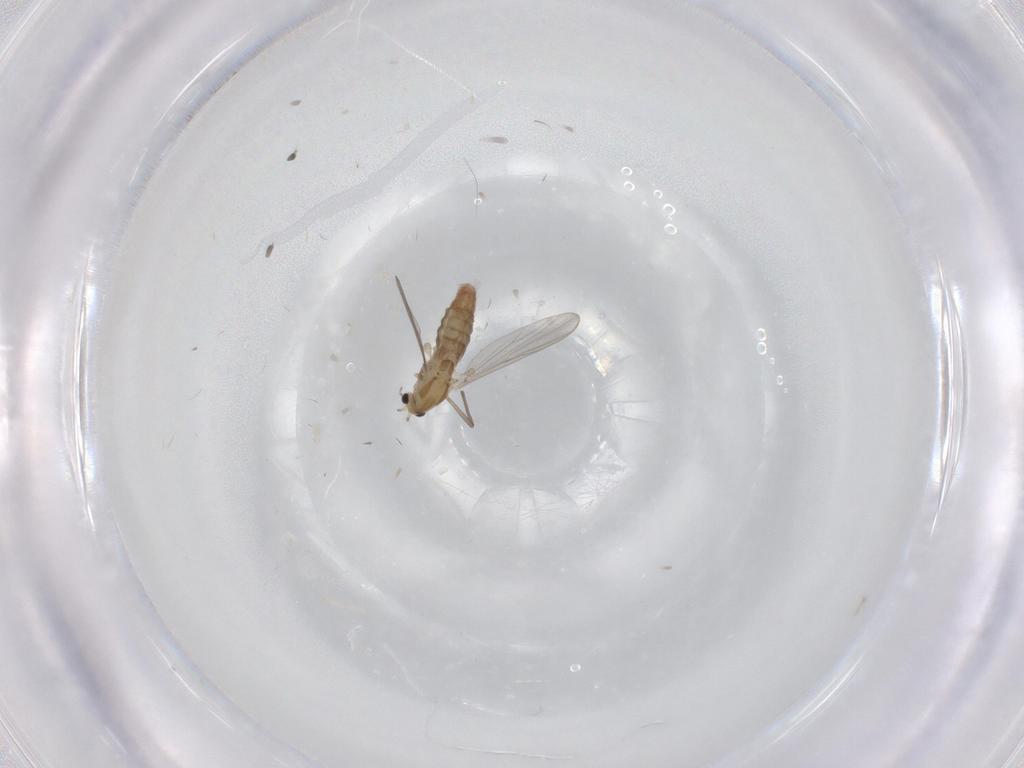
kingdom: Animalia
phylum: Arthropoda
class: Insecta
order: Diptera
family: Chironomidae
